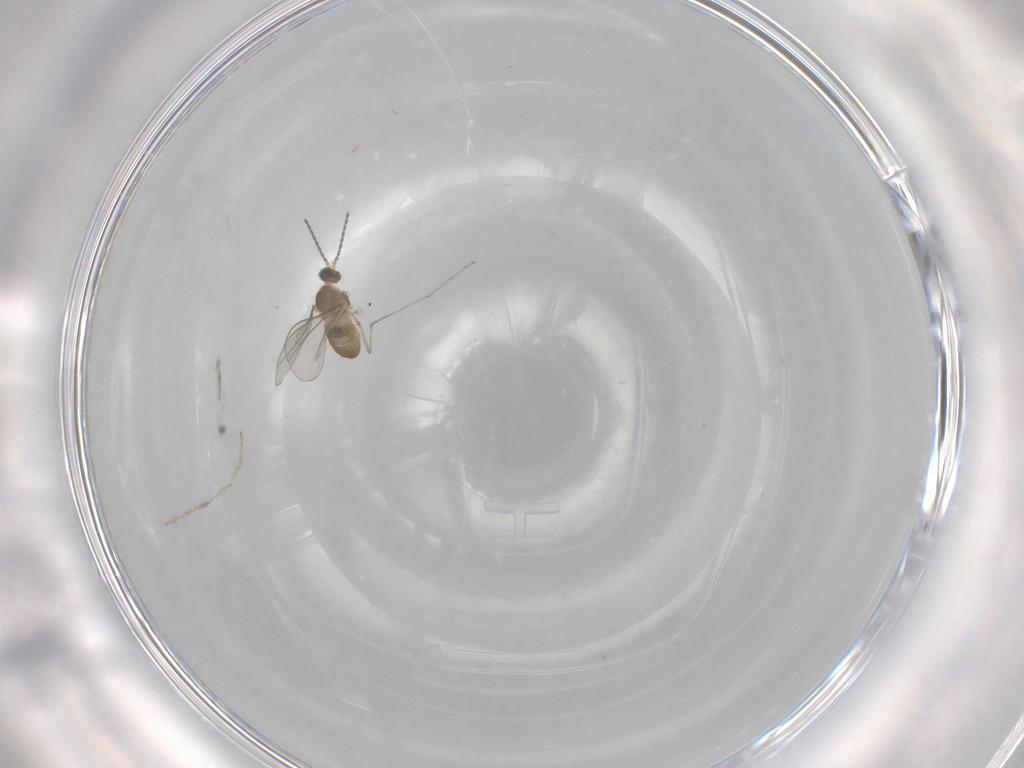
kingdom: Animalia
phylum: Arthropoda
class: Insecta
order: Diptera
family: Cecidomyiidae
